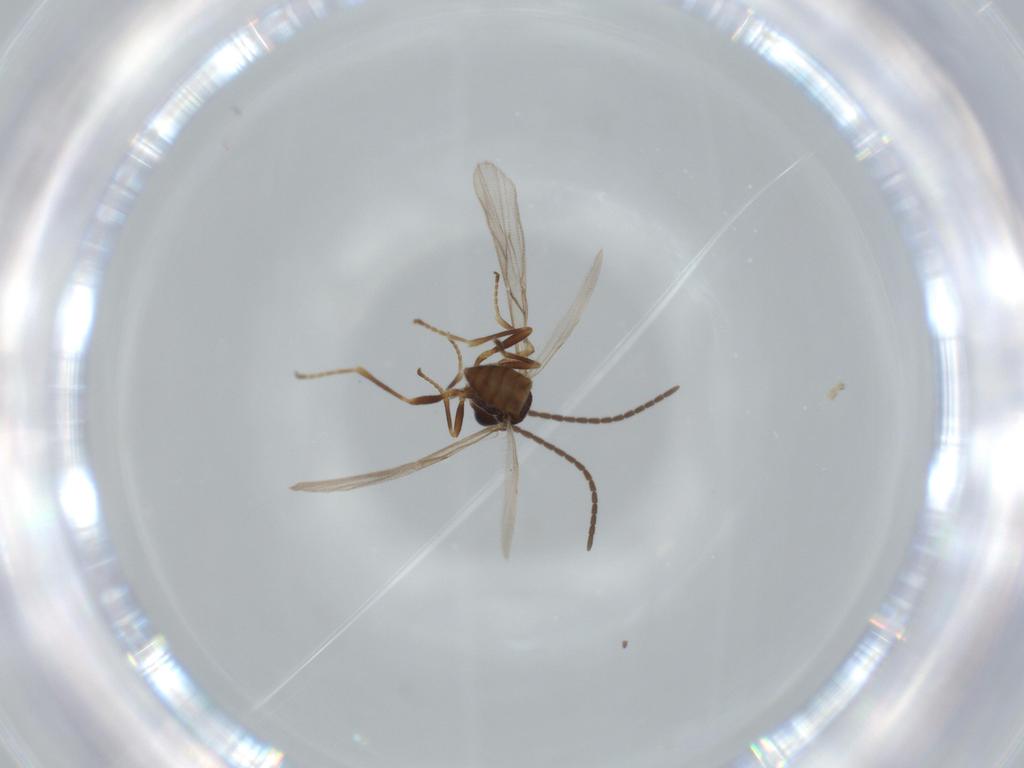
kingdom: Animalia
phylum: Arthropoda
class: Insecta
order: Hymenoptera
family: Braconidae
